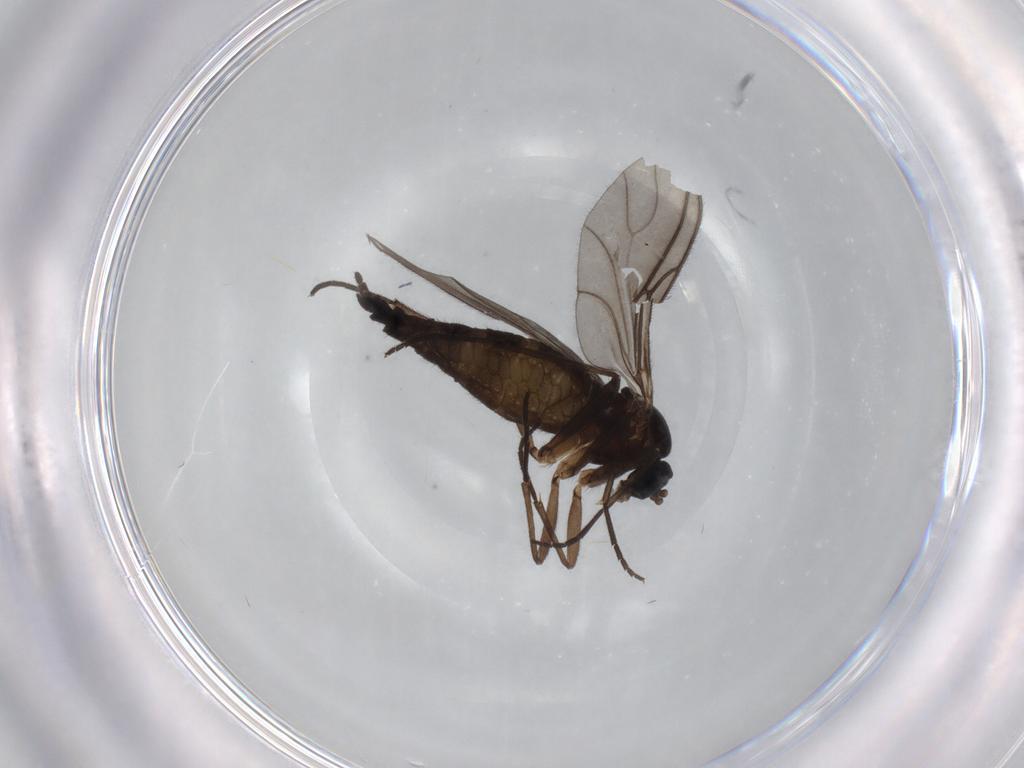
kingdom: Animalia
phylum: Arthropoda
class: Insecta
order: Diptera
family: Sciaridae
